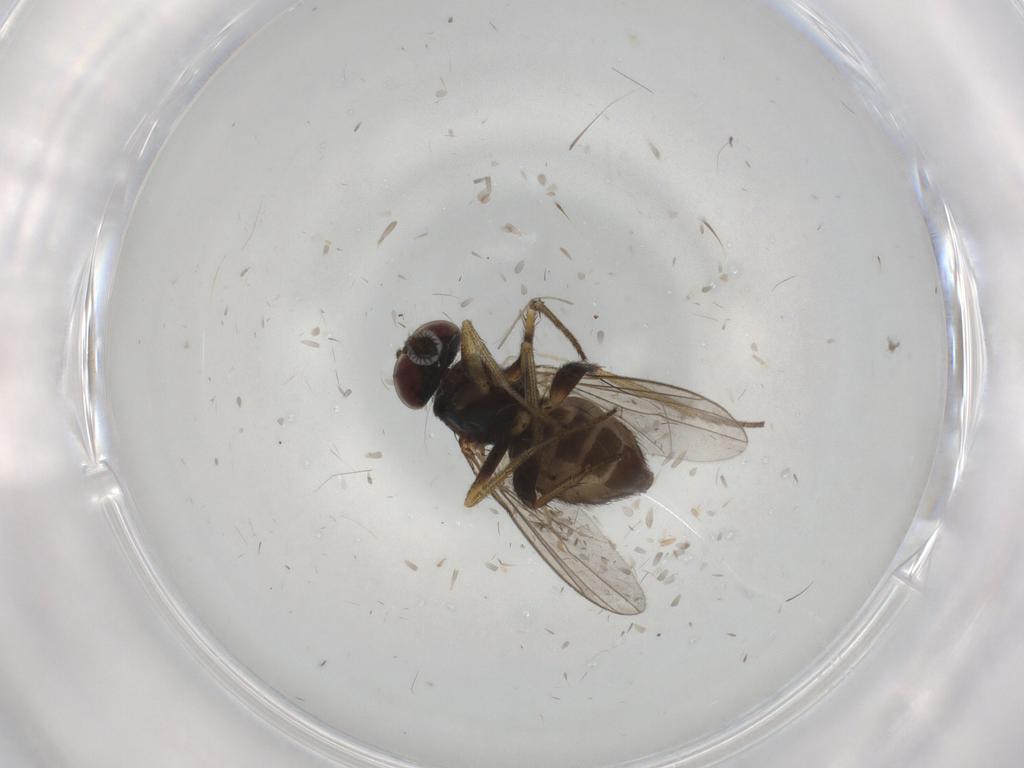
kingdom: Animalia
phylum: Arthropoda
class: Insecta
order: Diptera
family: Dolichopodidae
